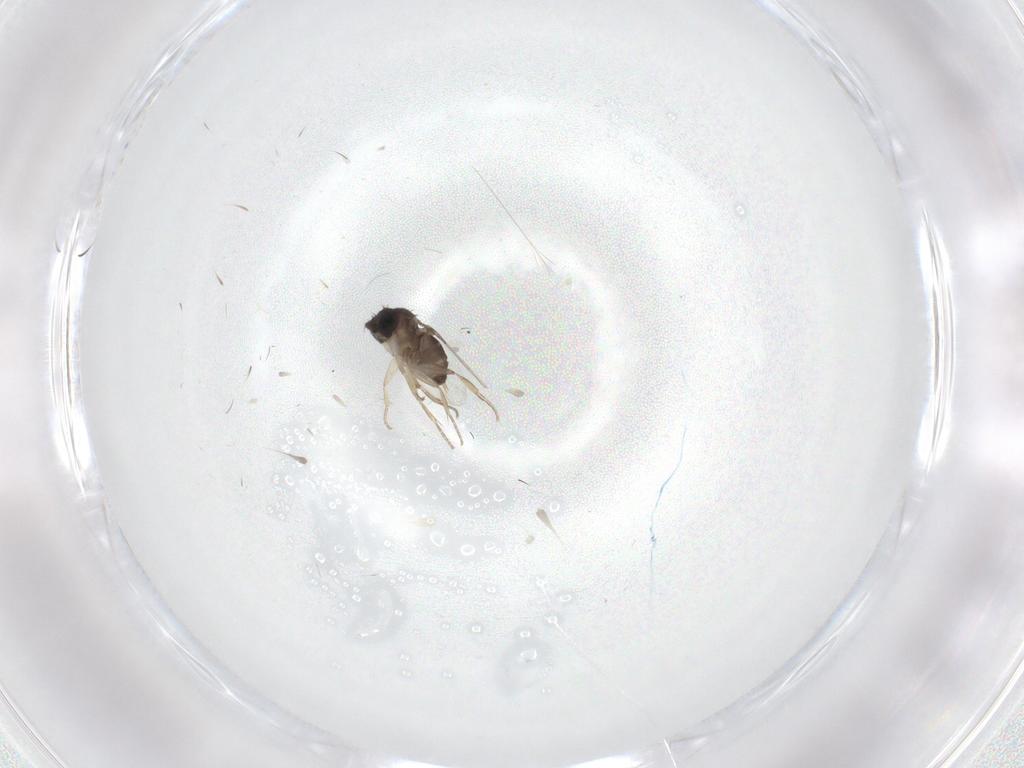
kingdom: Animalia
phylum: Arthropoda
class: Insecta
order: Diptera
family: Phoridae
